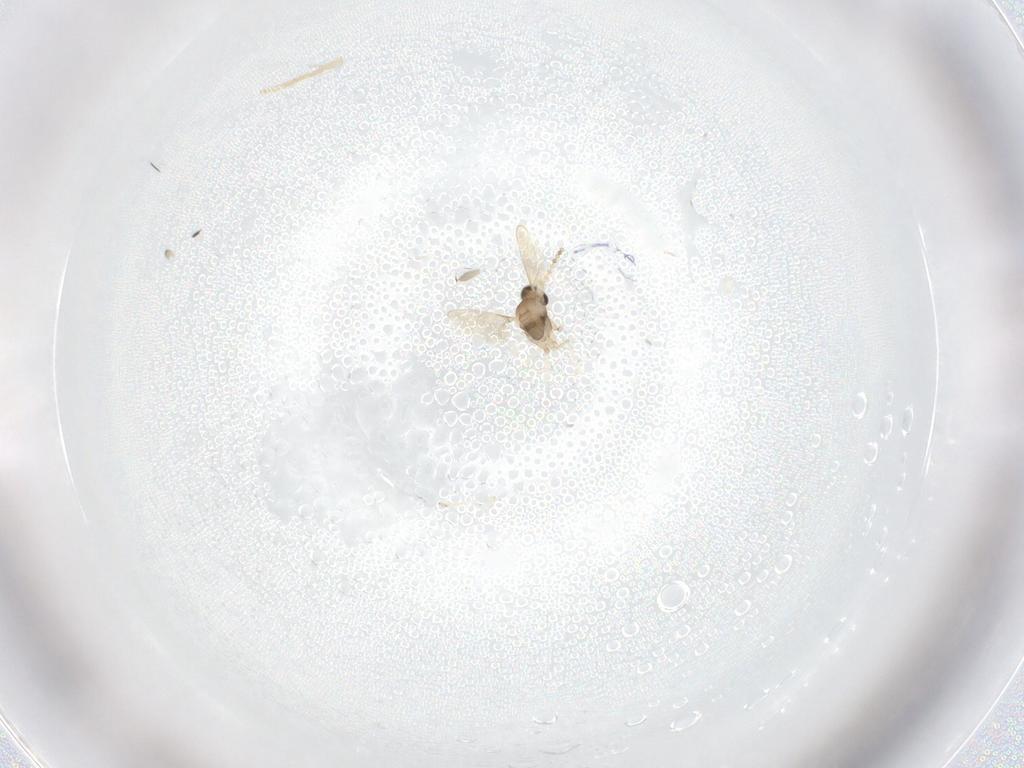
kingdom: Animalia
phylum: Arthropoda
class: Insecta
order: Diptera
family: Cecidomyiidae
